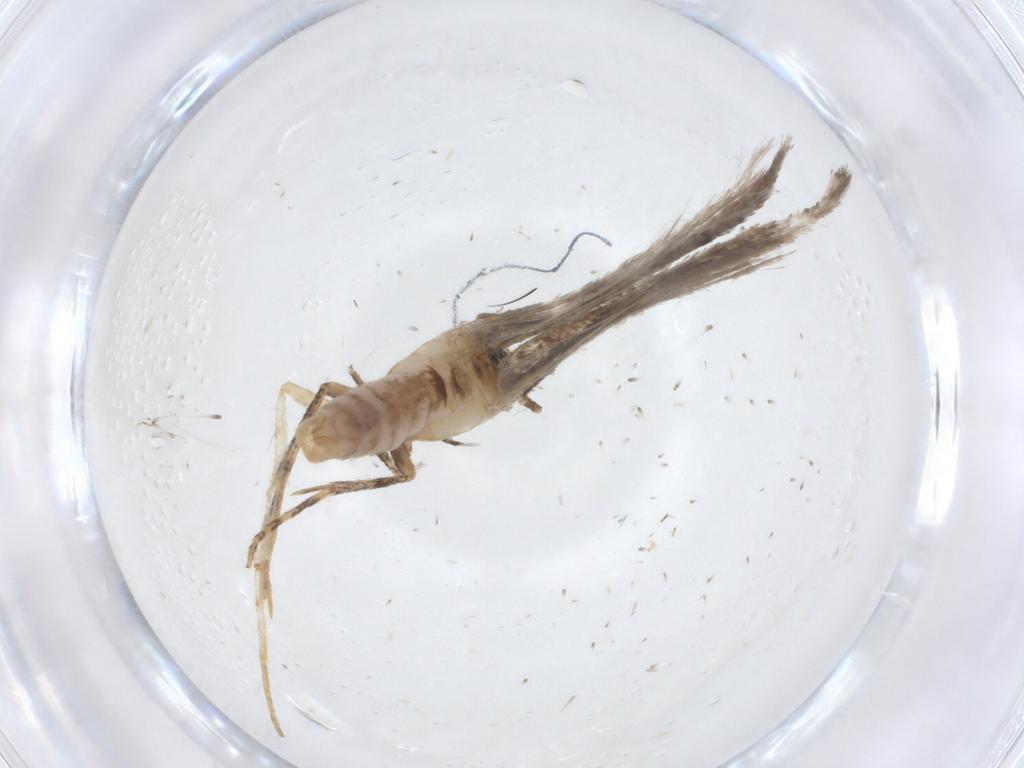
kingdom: Animalia
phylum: Arthropoda
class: Insecta
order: Lepidoptera
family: Gelechiidae
